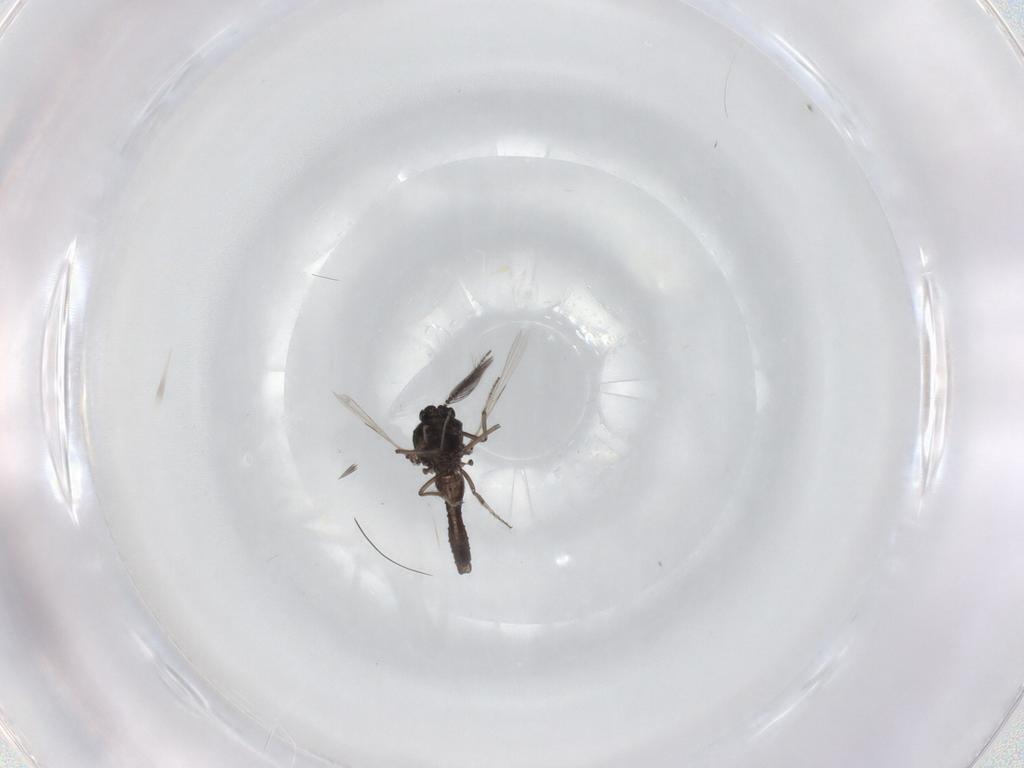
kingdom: Animalia
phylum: Arthropoda
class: Insecta
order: Diptera
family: Ceratopogonidae
